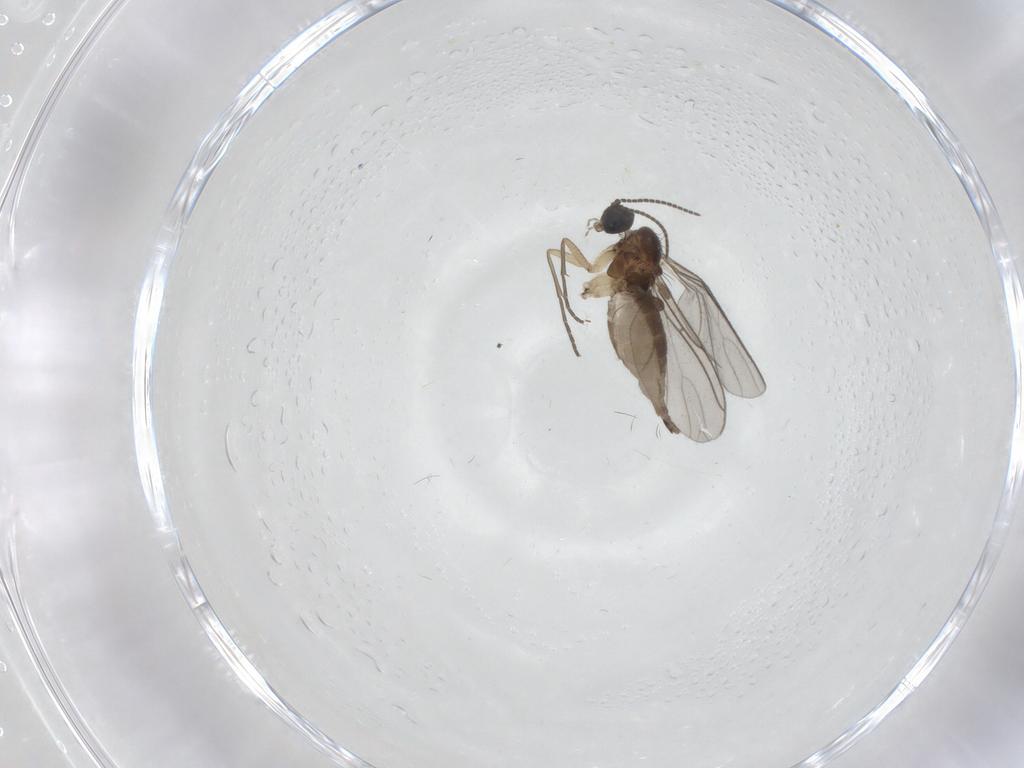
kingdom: Animalia
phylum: Arthropoda
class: Insecta
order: Diptera
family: Sciaridae
